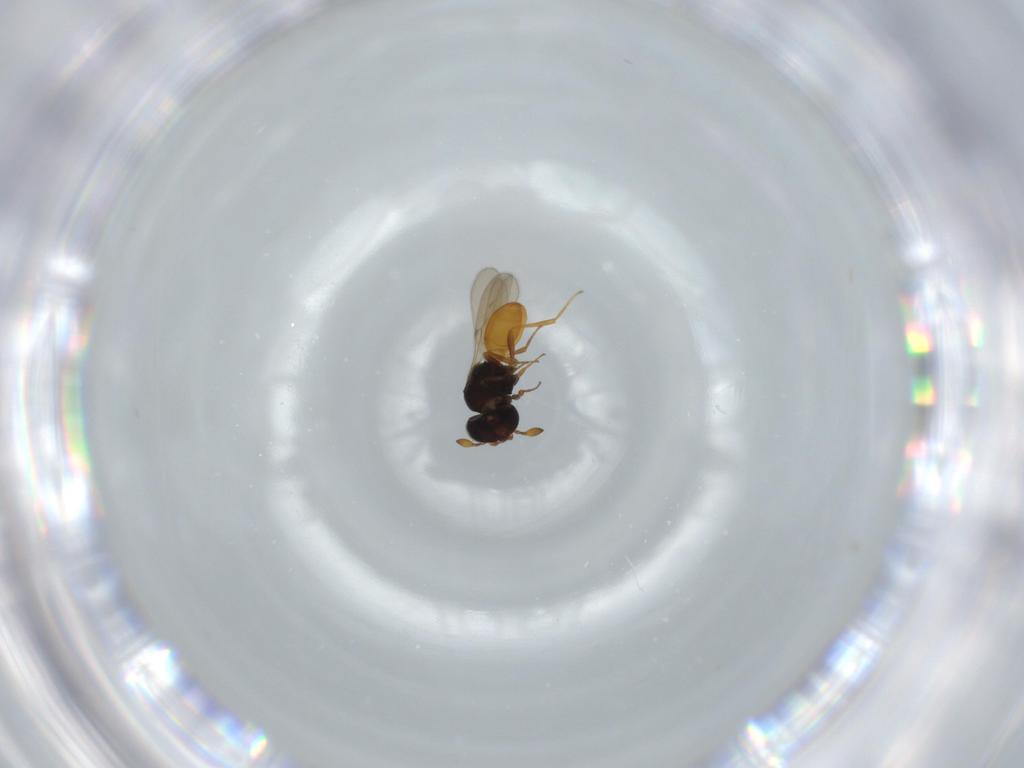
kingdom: Animalia
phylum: Arthropoda
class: Insecta
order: Hymenoptera
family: Scelionidae
